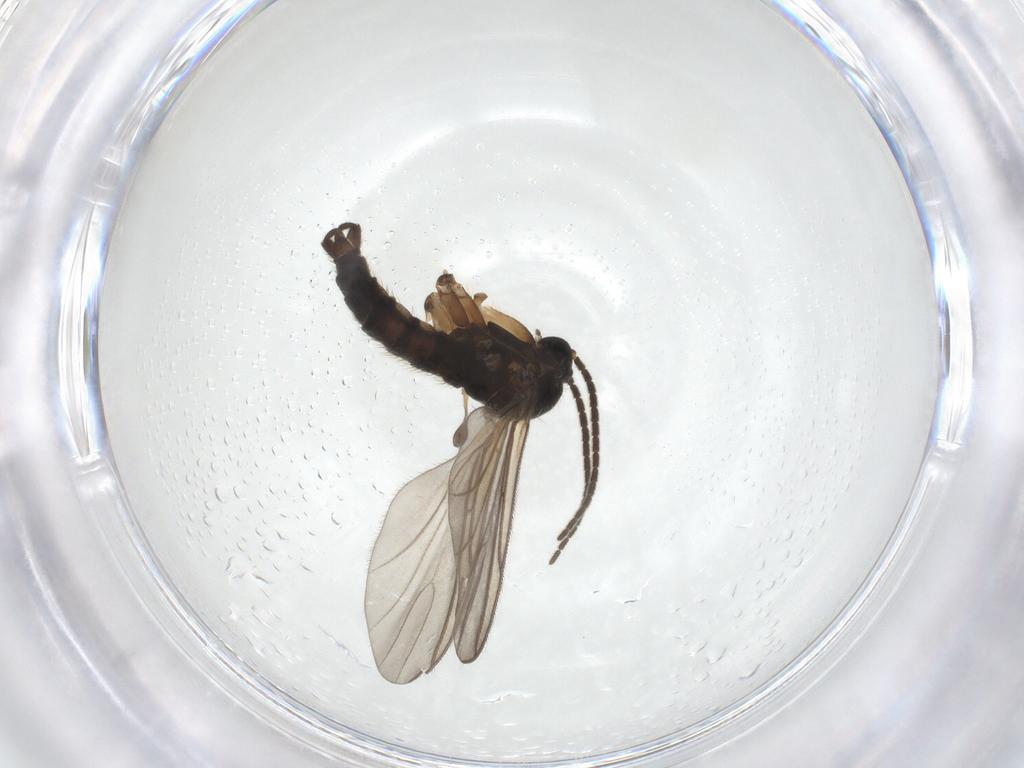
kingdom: Animalia
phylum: Arthropoda
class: Insecta
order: Diptera
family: Sciaridae
